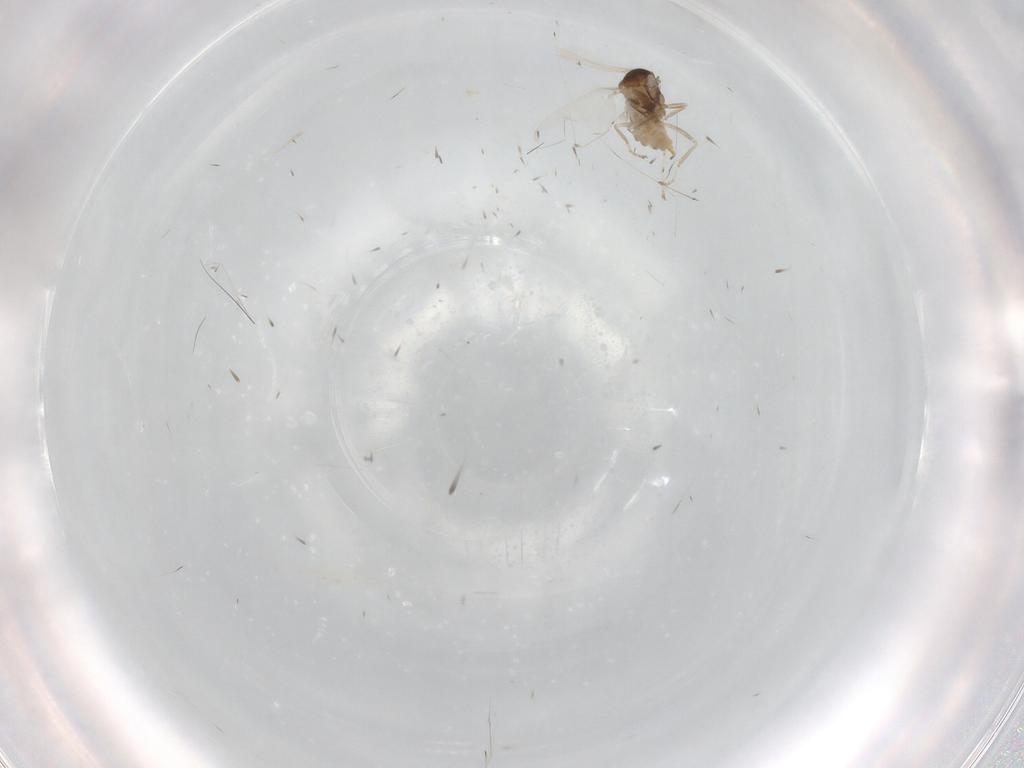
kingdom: Animalia
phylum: Arthropoda
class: Insecta
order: Diptera
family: Cecidomyiidae
